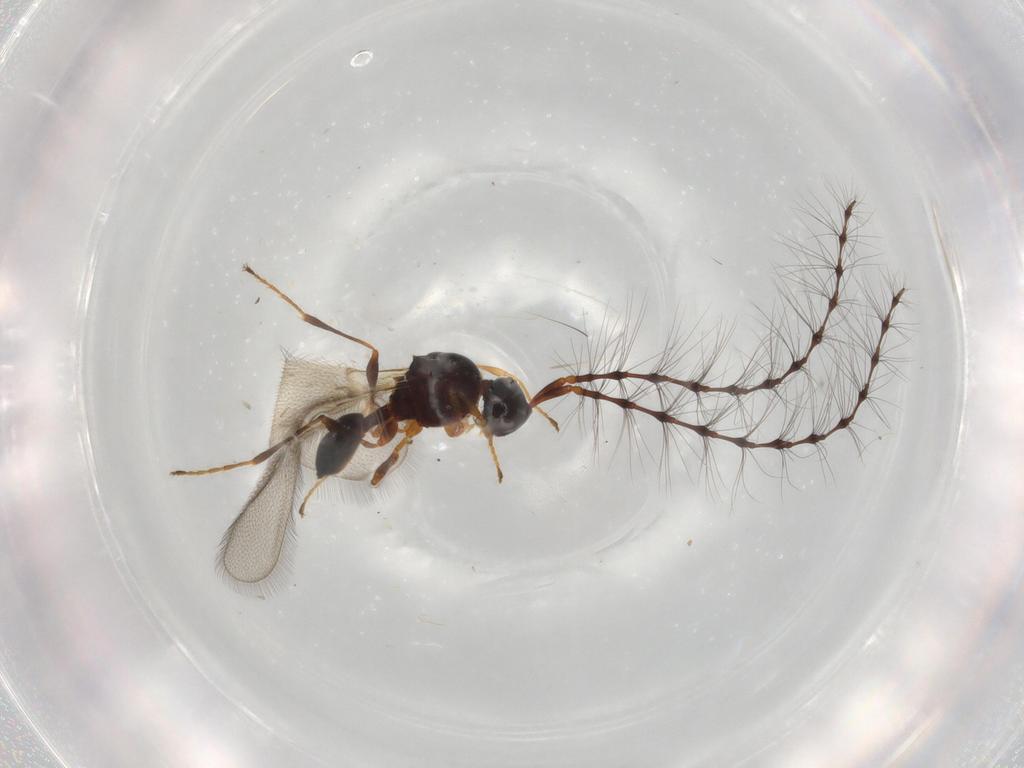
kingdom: Animalia
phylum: Arthropoda
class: Insecta
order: Hymenoptera
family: Diapriidae
